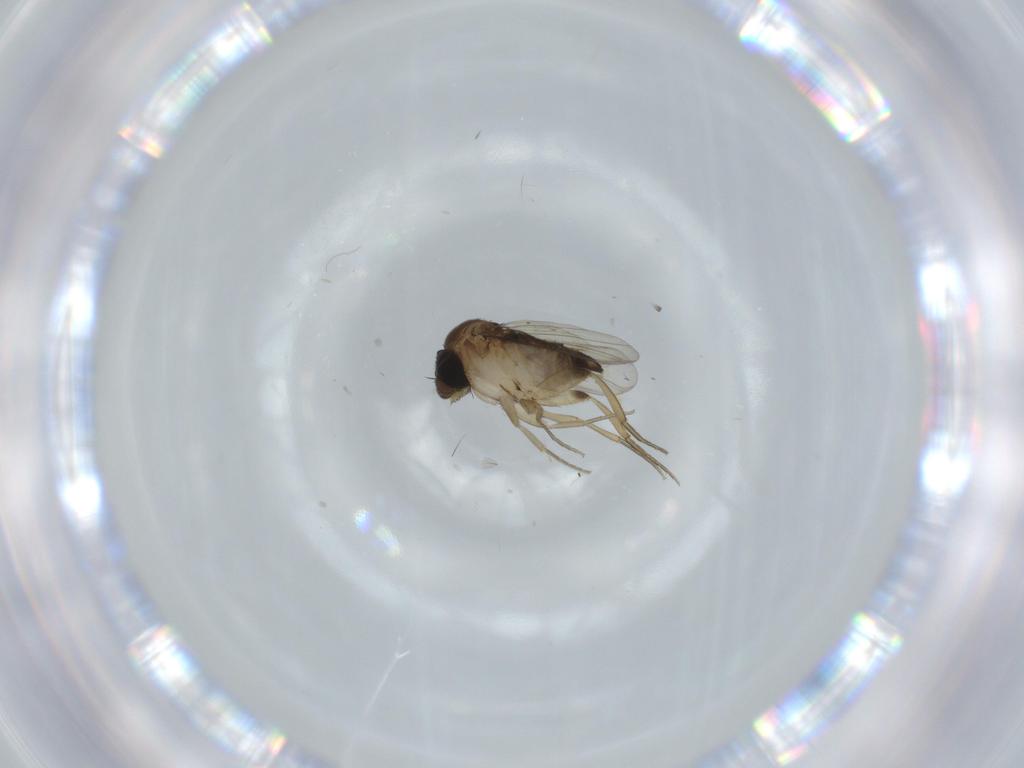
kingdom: Animalia
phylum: Arthropoda
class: Insecta
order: Diptera
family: Phoridae
